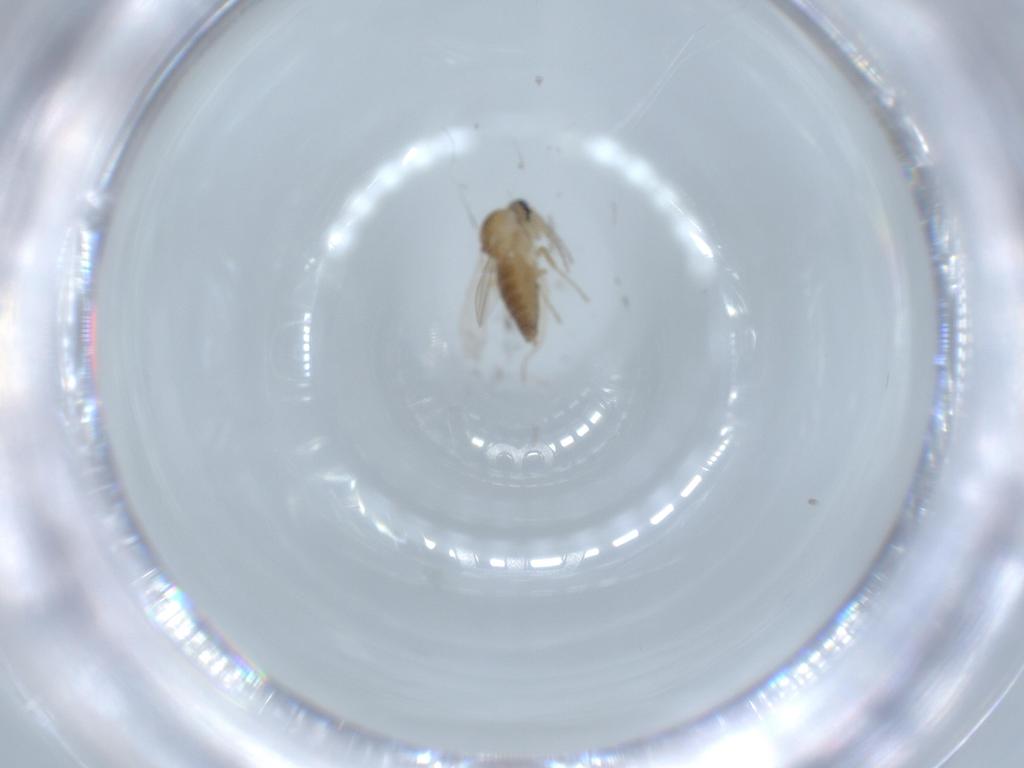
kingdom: Animalia
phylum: Arthropoda
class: Insecta
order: Diptera
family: Ceratopogonidae
